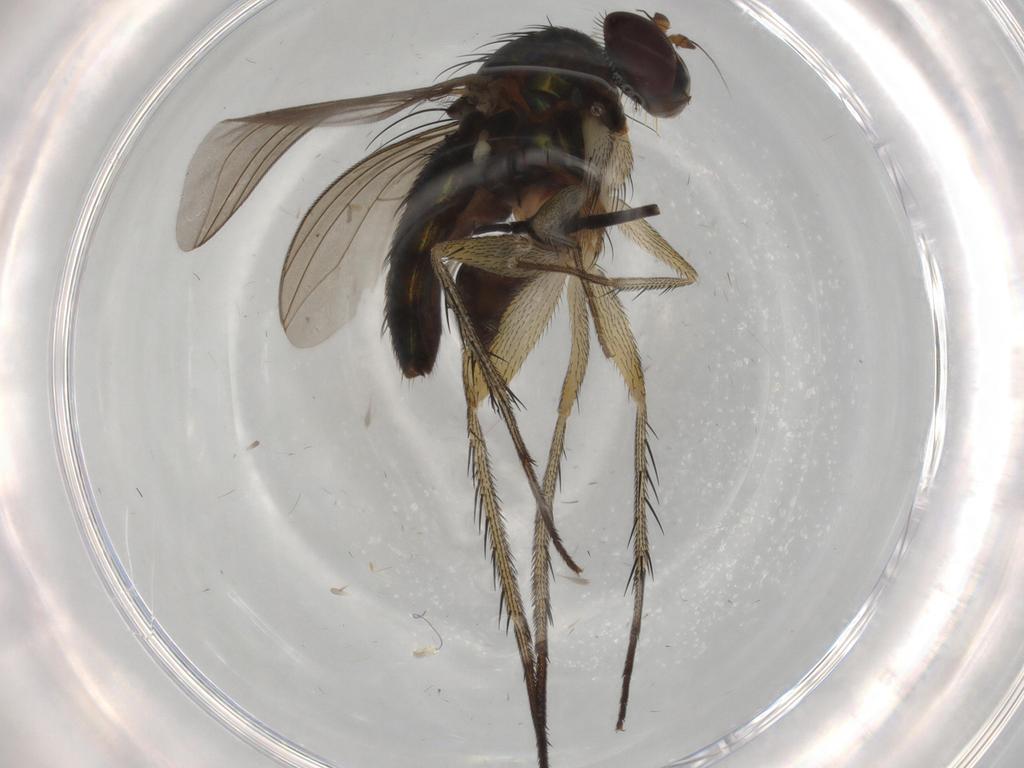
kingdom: Animalia
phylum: Arthropoda
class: Insecta
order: Diptera
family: Dolichopodidae
